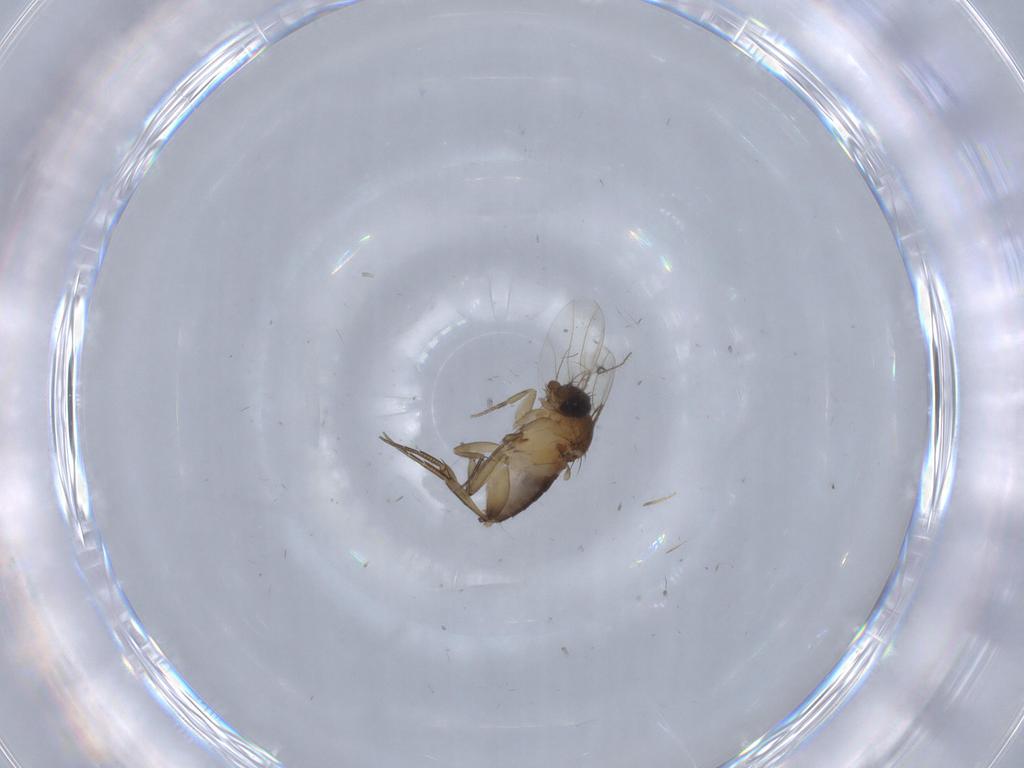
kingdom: Animalia
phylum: Arthropoda
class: Insecta
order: Diptera
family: Phoridae
